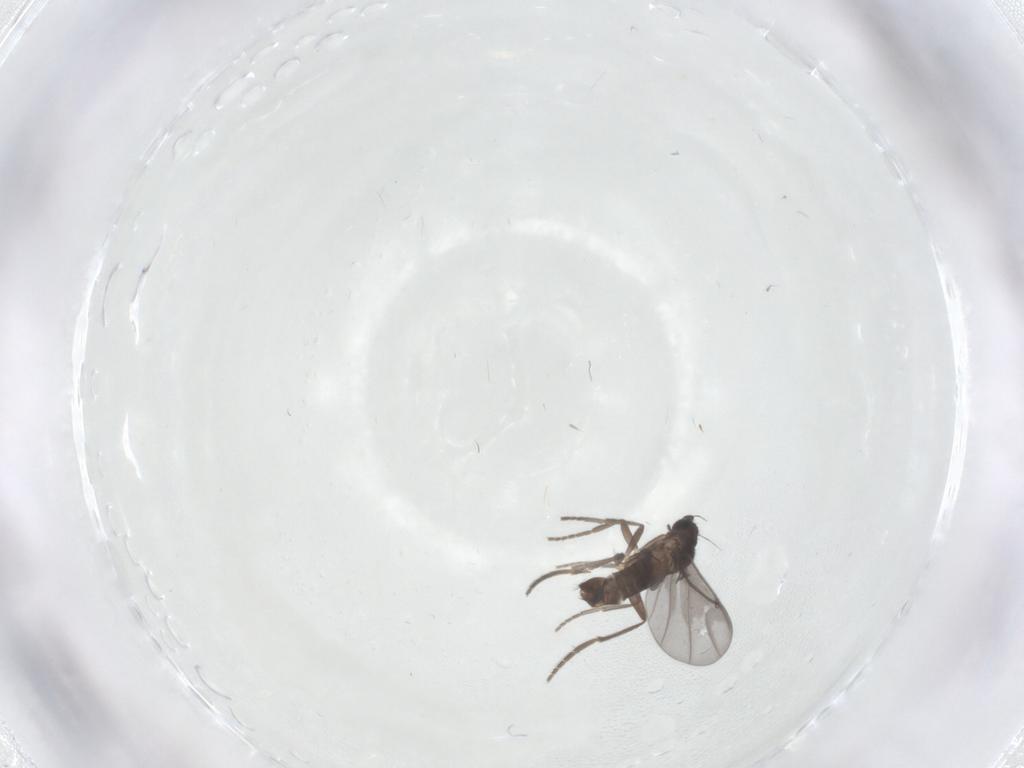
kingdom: Animalia
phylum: Arthropoda
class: Insecta
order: Diptera
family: Phoridae
